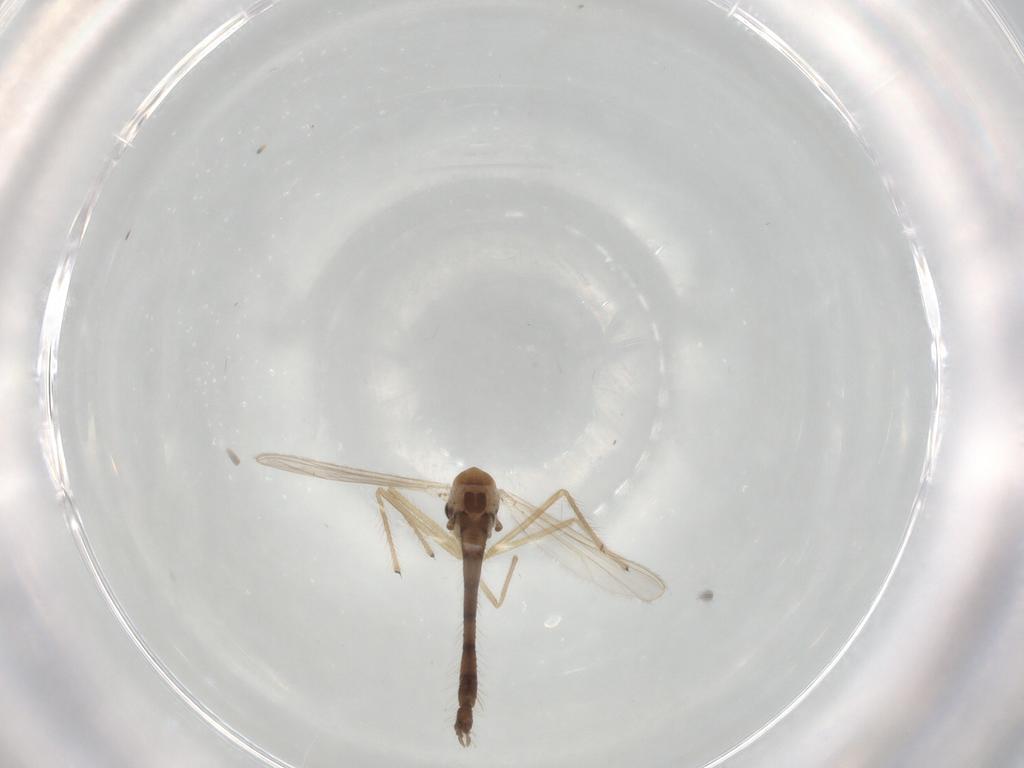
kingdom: Animalia
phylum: Arthropoda
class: Insecta
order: Diptera
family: Chironomidae
